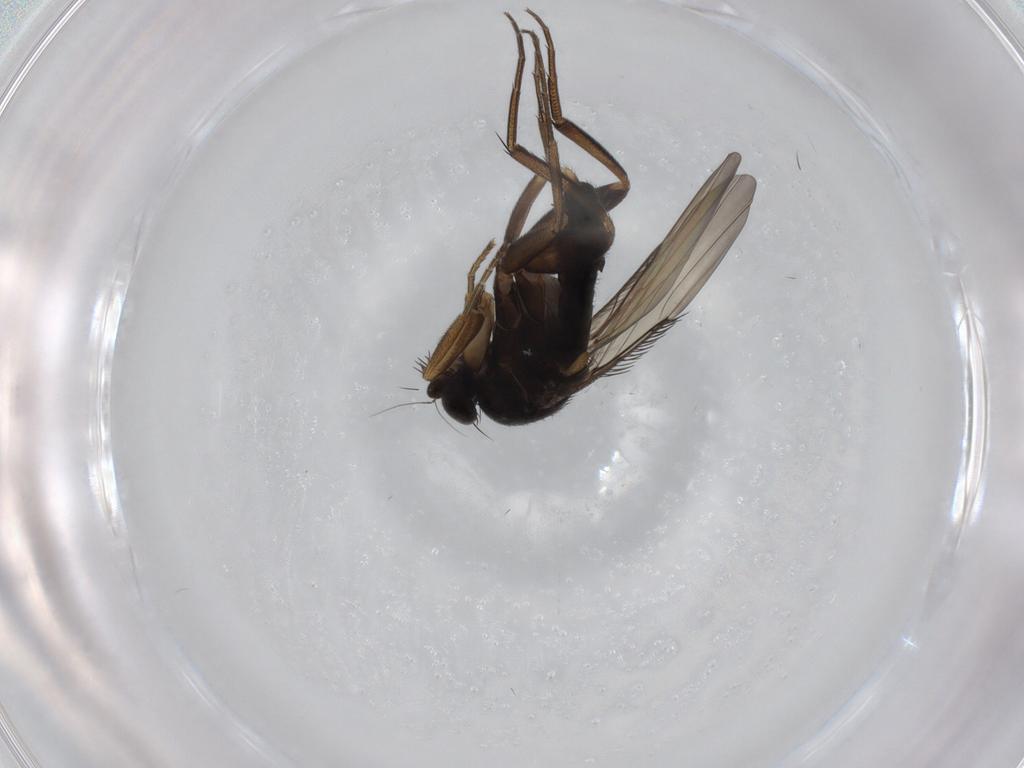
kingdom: Animalia
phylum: Arthropoda
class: Insecta
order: Diptera
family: Phoridae
